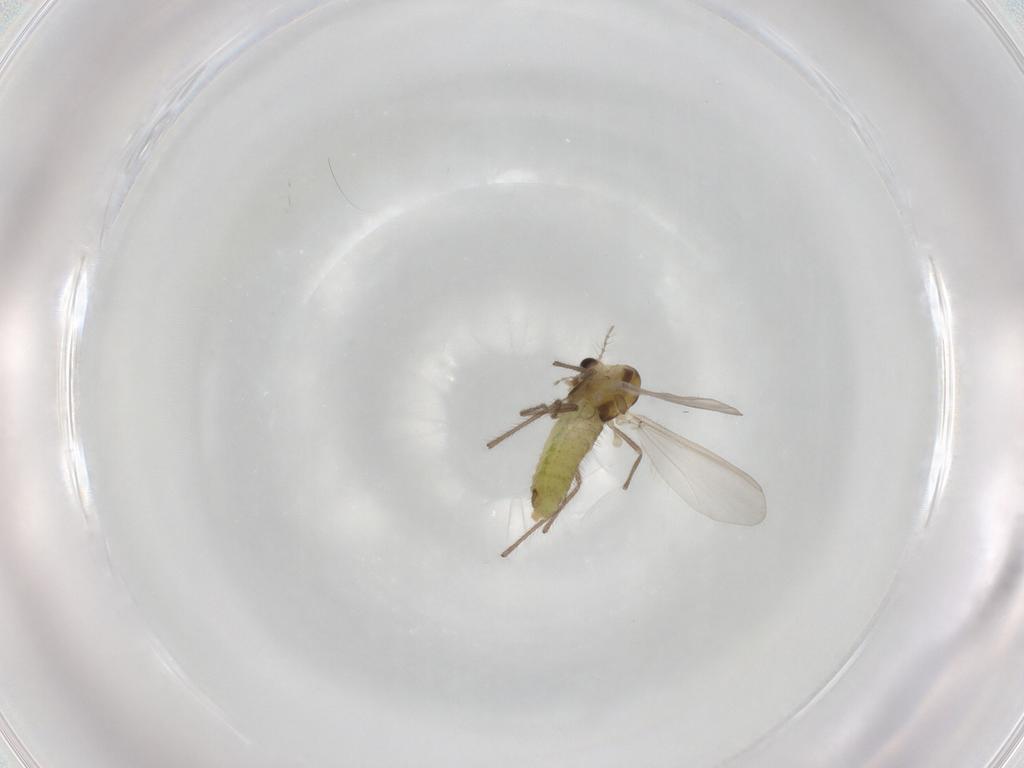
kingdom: Animalia
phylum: Arthropoda
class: Insecta
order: Diptera
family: Chironomidae
